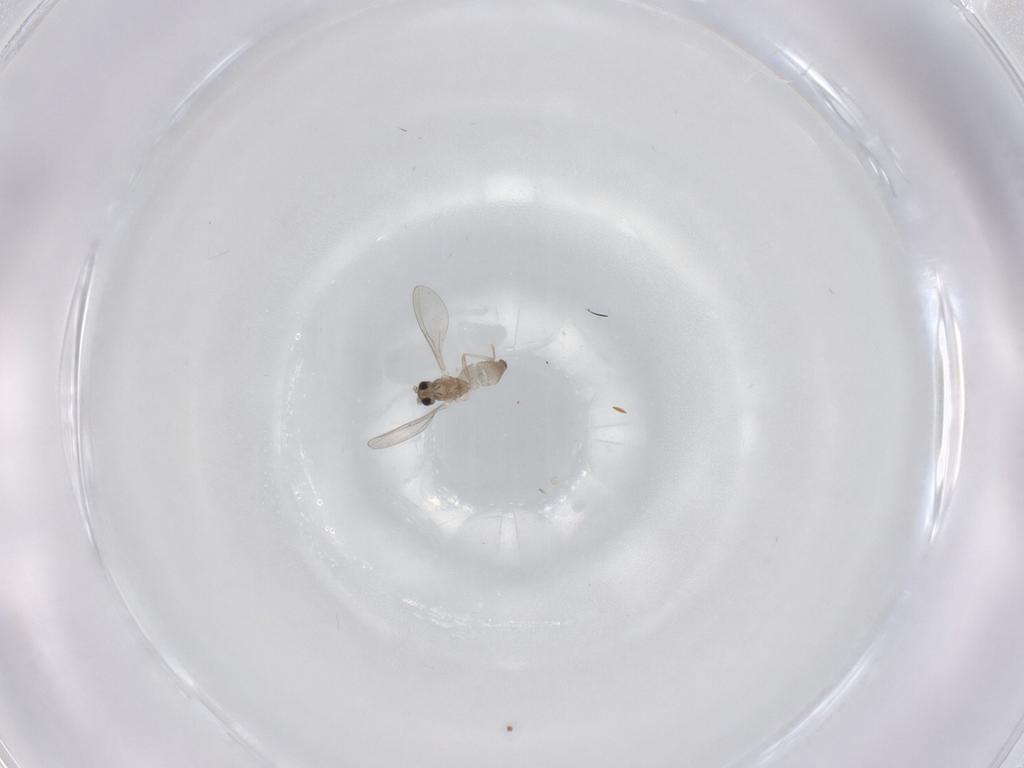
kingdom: Animalia
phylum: Arthropoda
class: Insecta
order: Diptera
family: Cecidomyiidae
